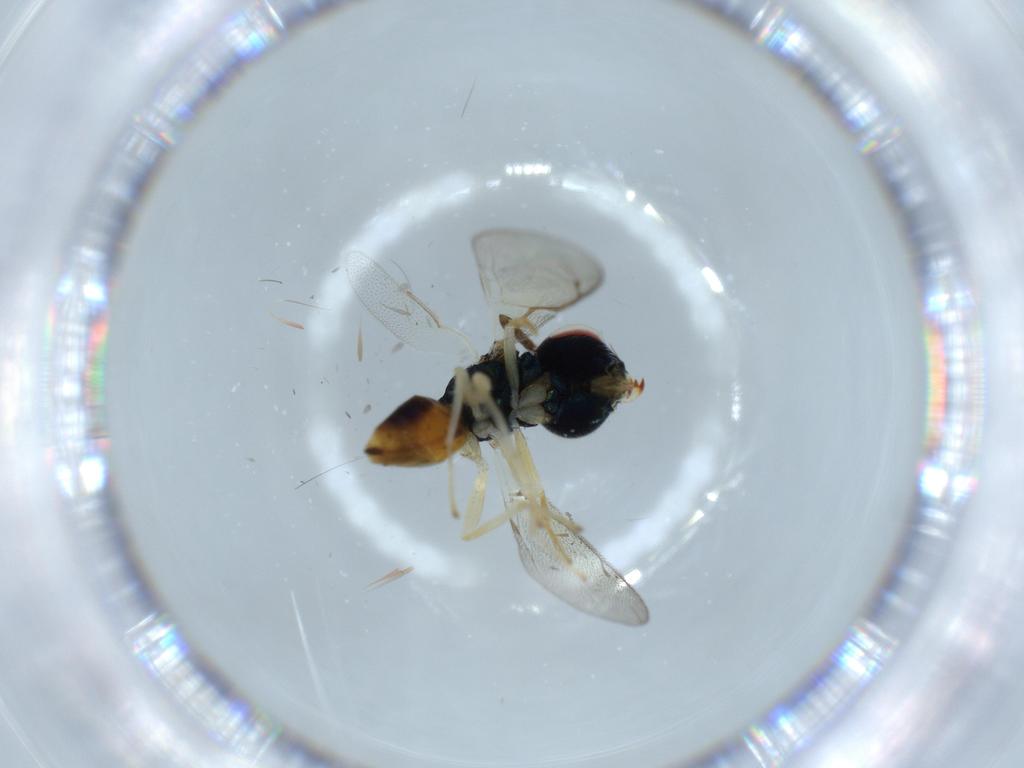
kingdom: Animalia
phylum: Arthropoda
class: Insecta
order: Hymenoptera
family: Pteromalidae
